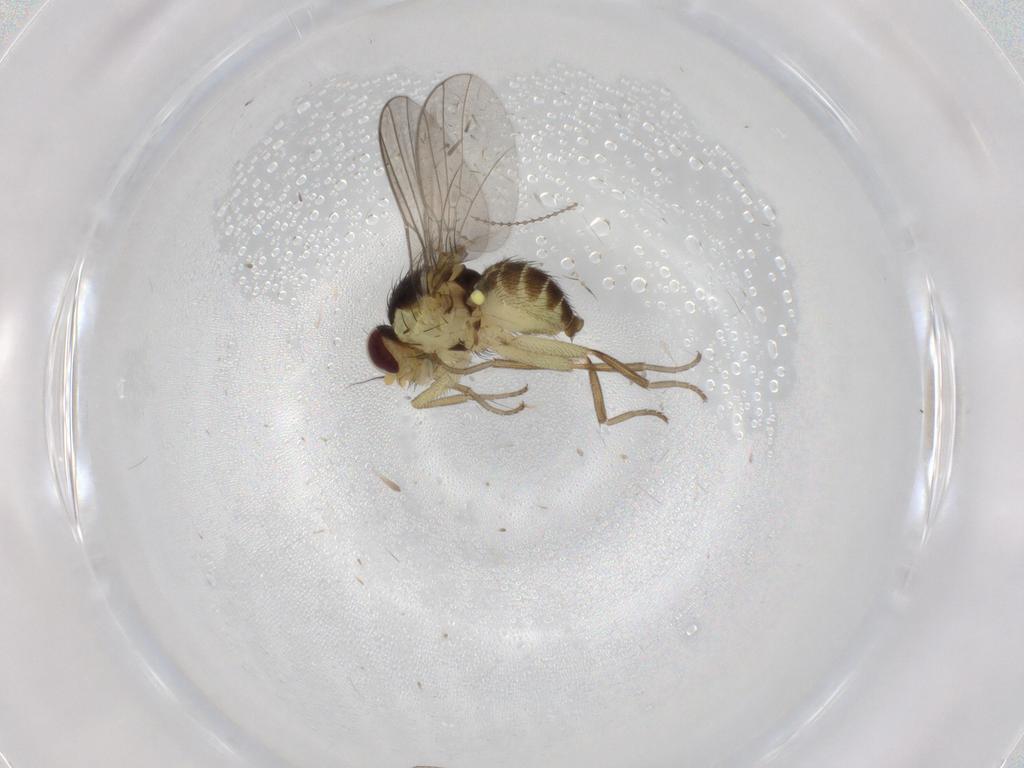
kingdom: Animalia
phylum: Arthropoda
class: Insecta
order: Diptera
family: Agromyzidae
